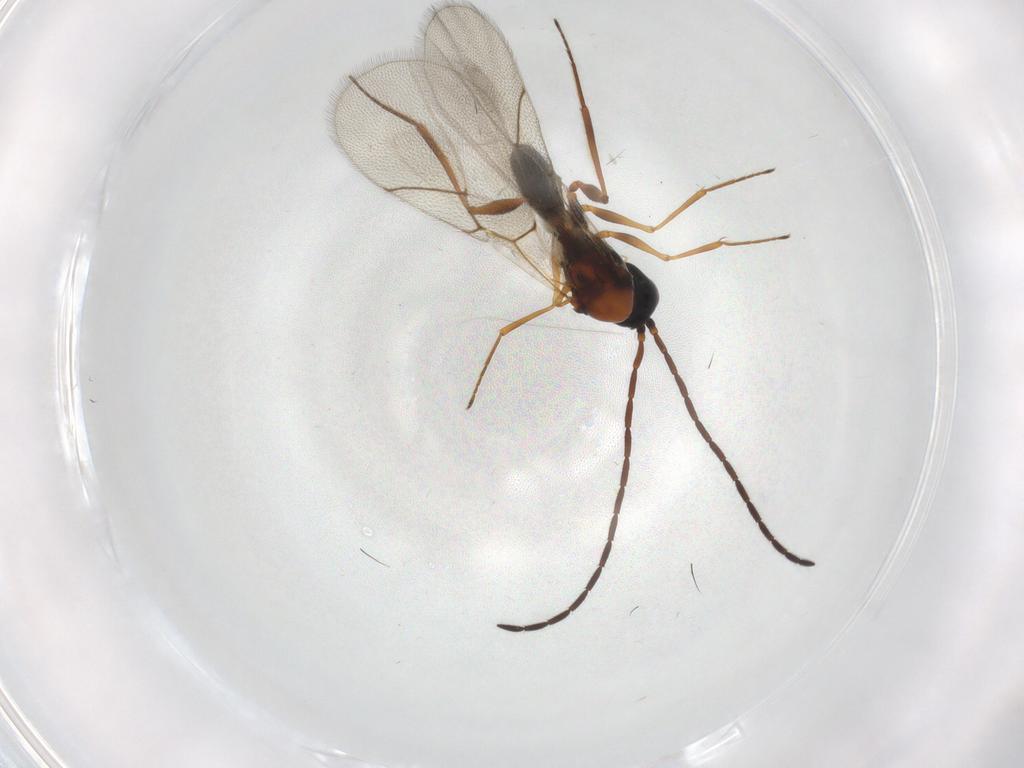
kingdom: Animalia
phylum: Arthropoda
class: Insecta
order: Hymenoptera
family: Figitidae
